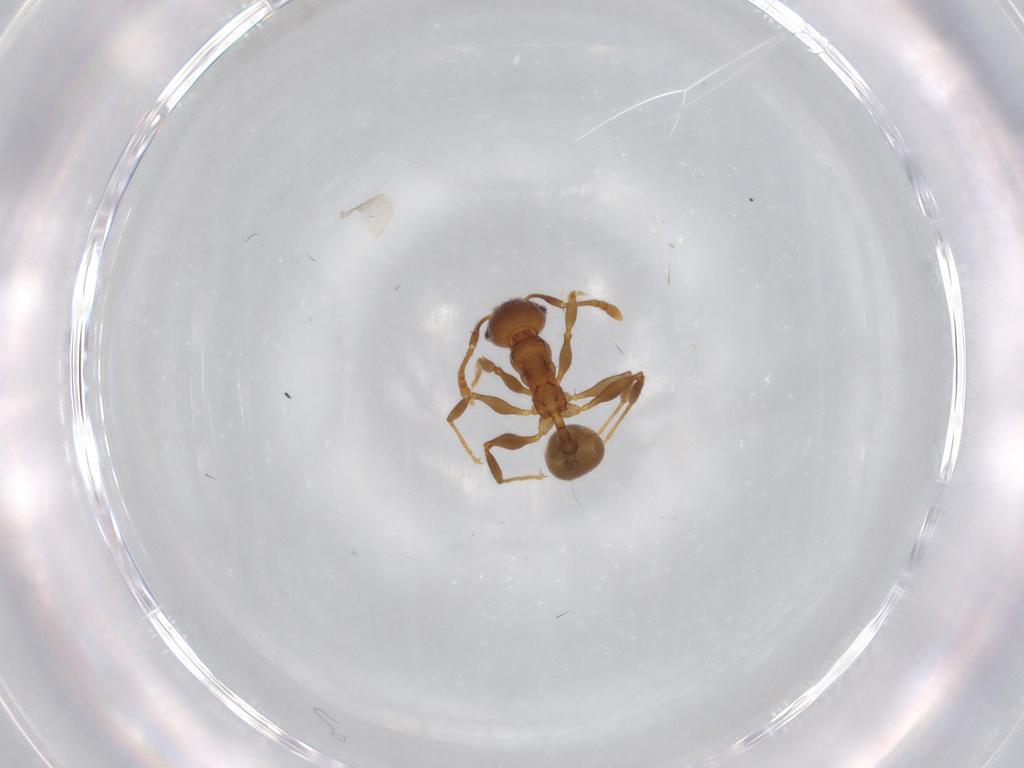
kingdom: Animalia
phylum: Arthropoda
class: Insecta
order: Hymenoptera
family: Formicidae
